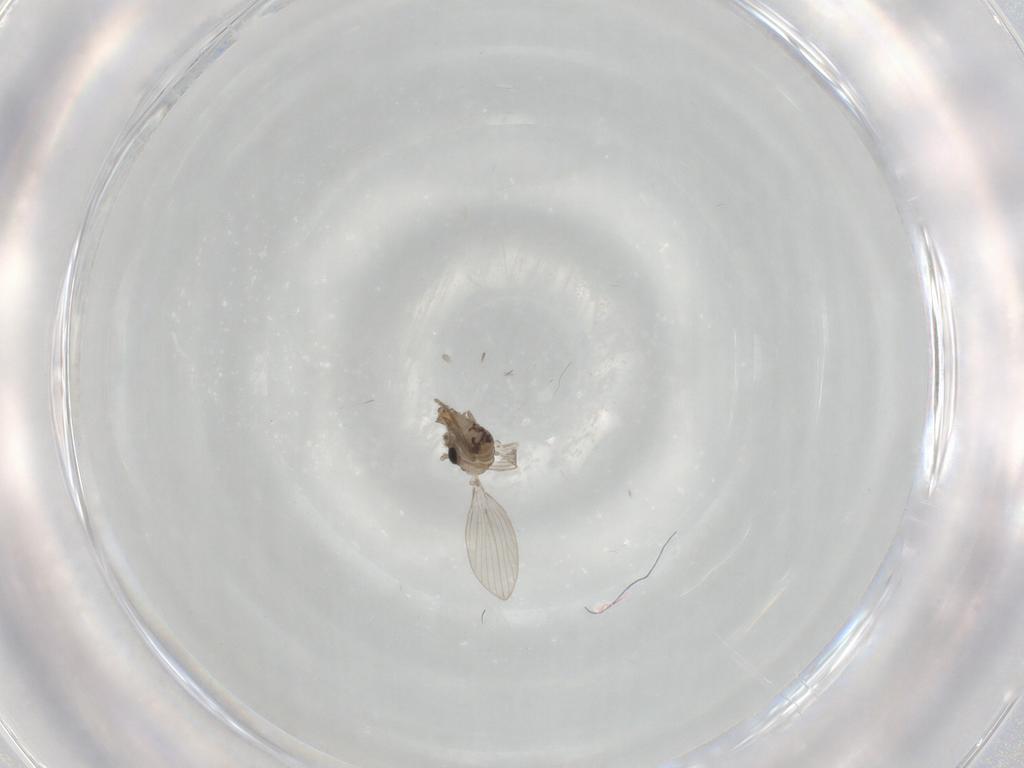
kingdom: Animalia
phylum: Arthropoda
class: Insecta
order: Diptera
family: Psychodidae
